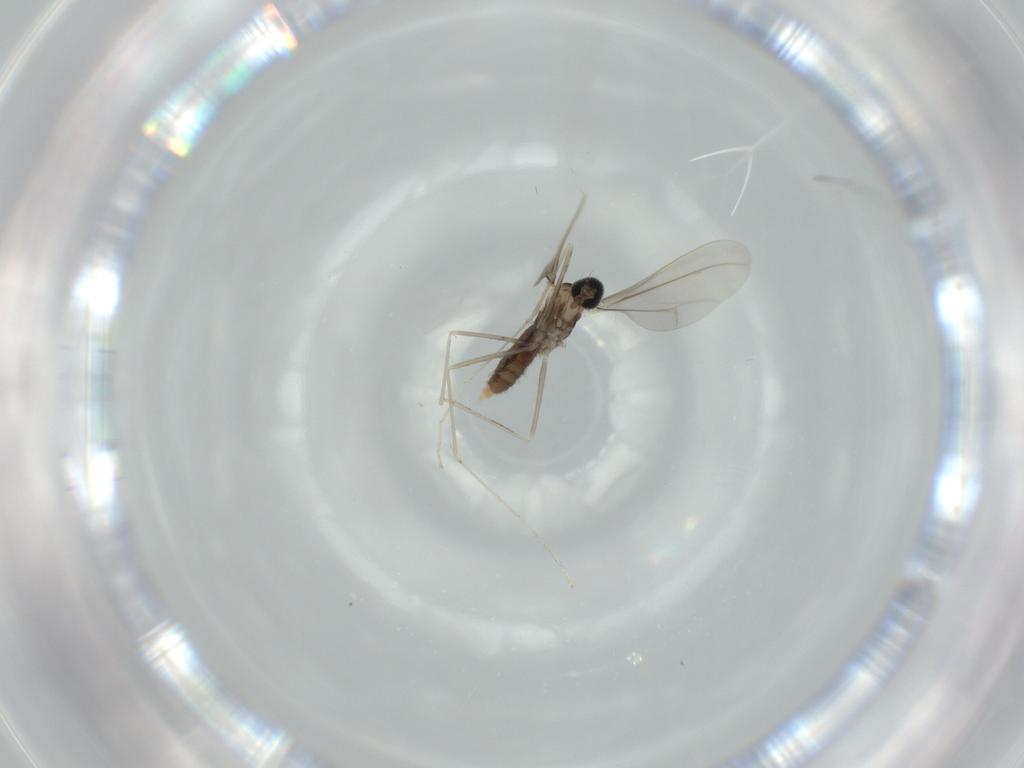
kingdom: Animalia
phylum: Arthropoda
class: Insecta
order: Diptera
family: Cecidomyiidae
